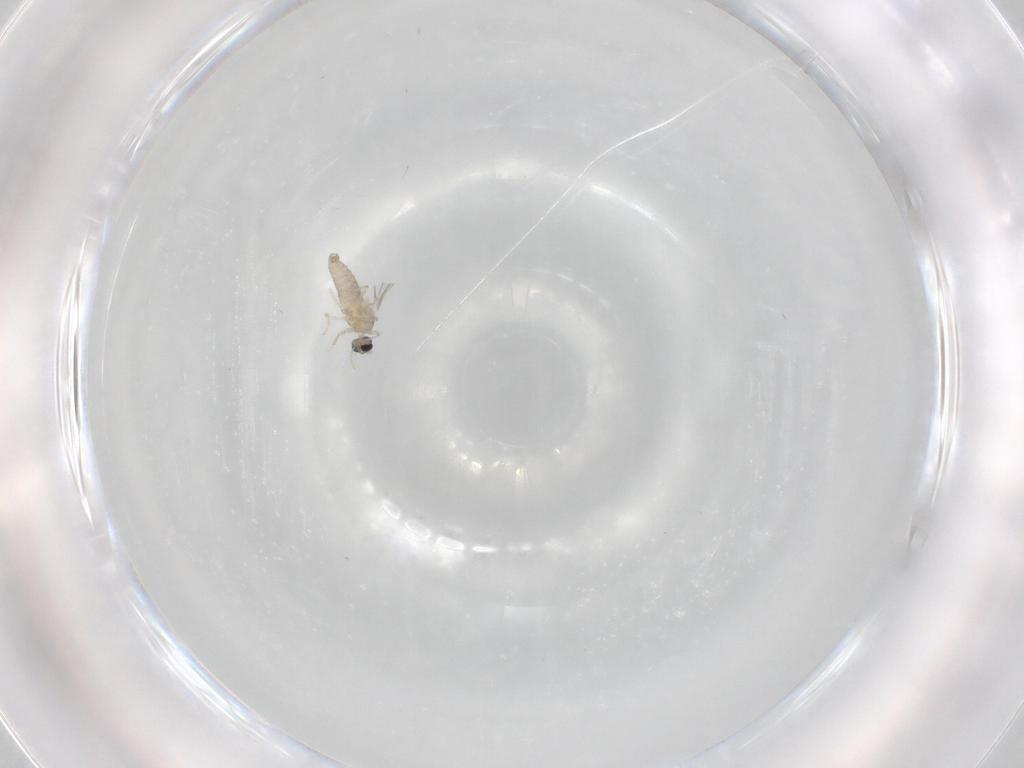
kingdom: Animalia
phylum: Arthropoda
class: Insecta
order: Diptera
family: Cecidomyiidae
